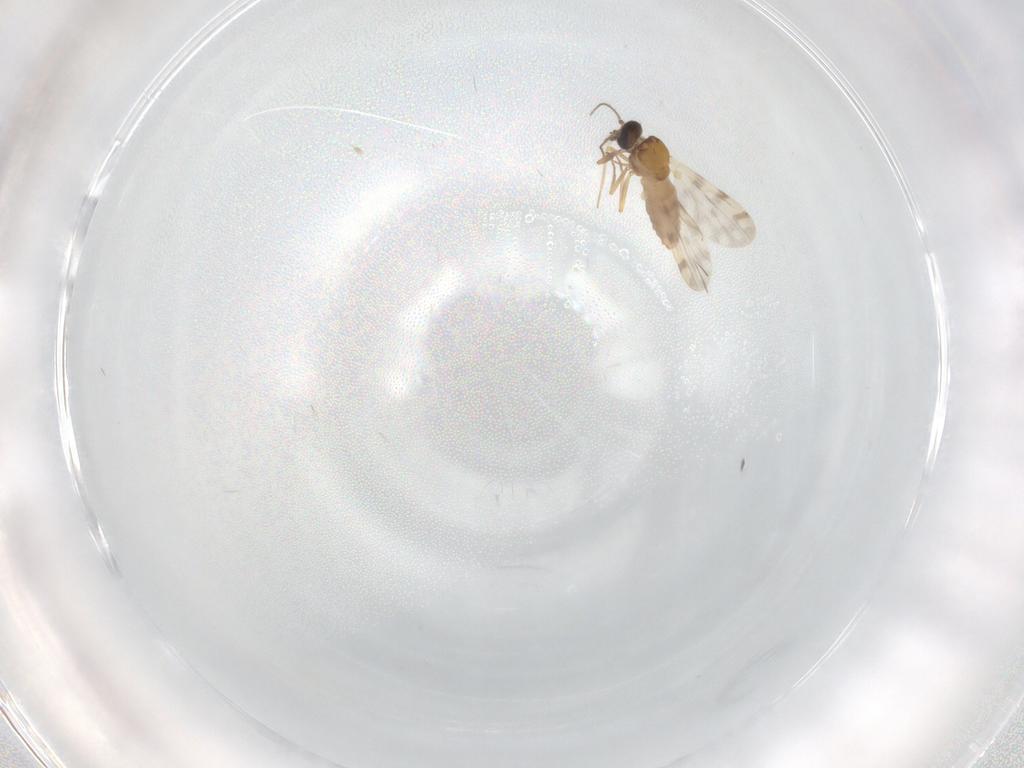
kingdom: Animalia
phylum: Arthropoda
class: Insecta
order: Diptera
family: Ceratopogonidae
